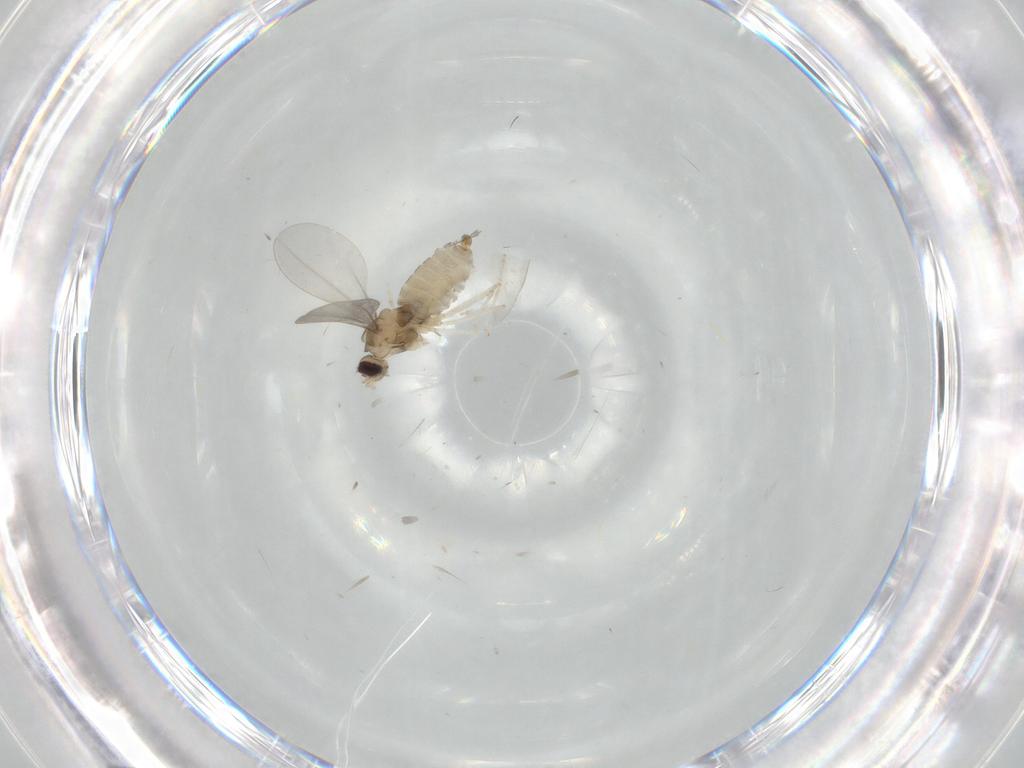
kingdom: Animalia
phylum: Arthropoda
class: Insecta
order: Diptera
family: Cecidomyiidae
